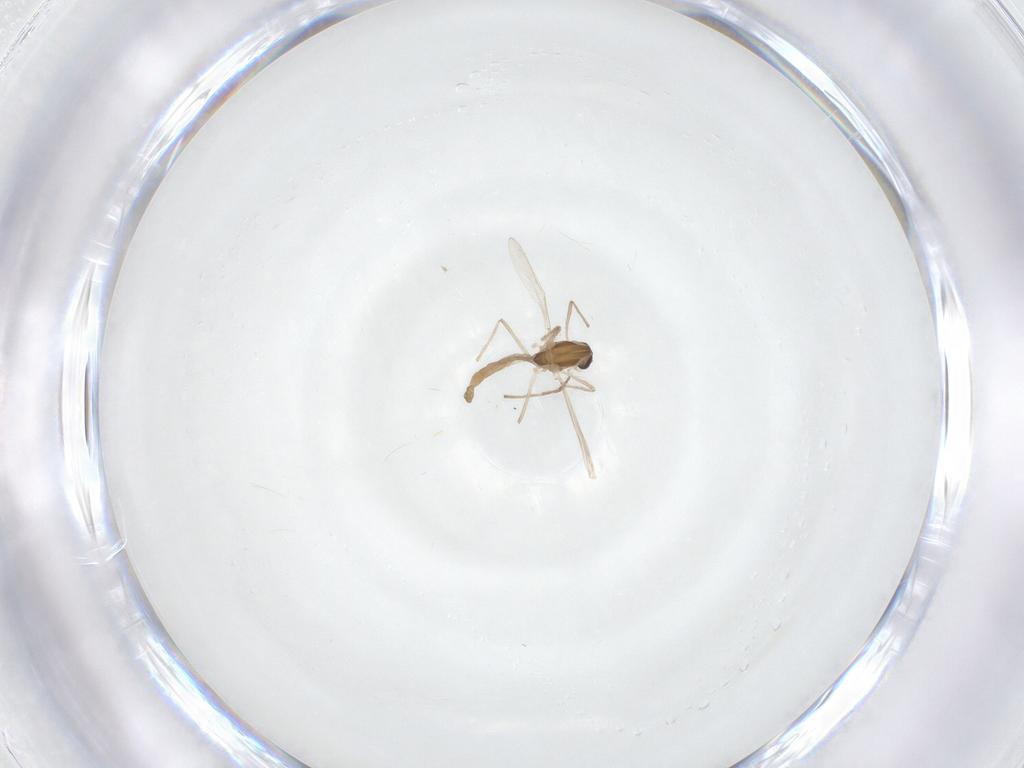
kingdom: Animalia
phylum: Arthropoda
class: Insecta
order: Diptera
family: Chironomidae
